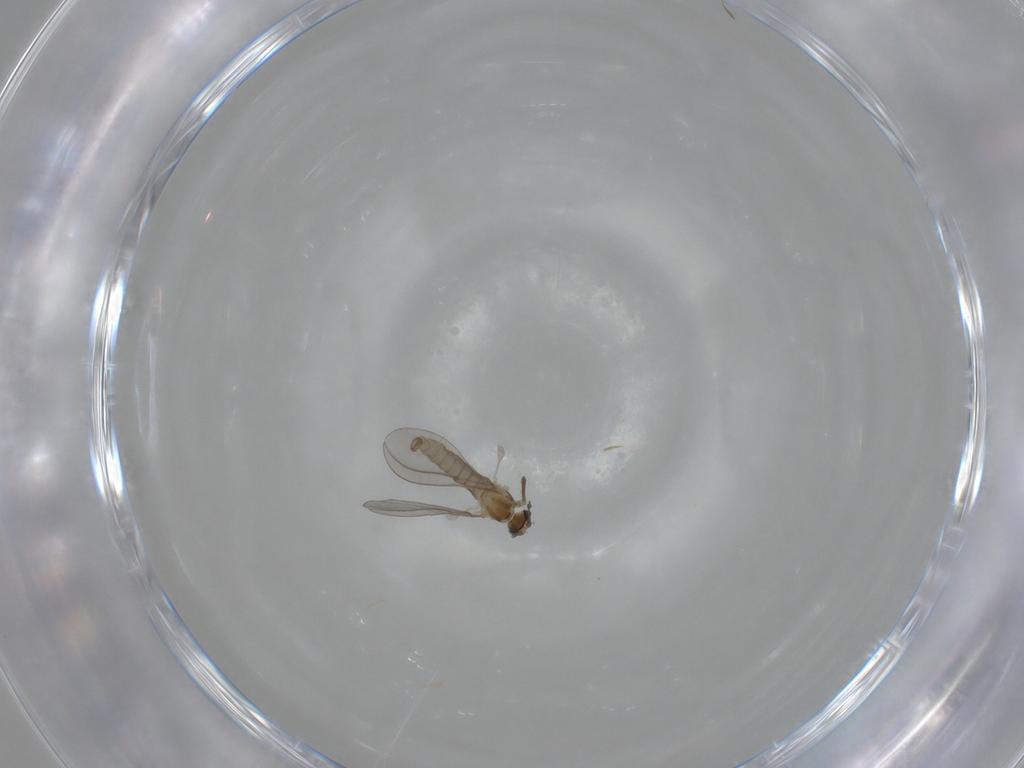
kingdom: Animalia
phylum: Arthropoda
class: Insecta
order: Diptera
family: Cecidomyiidae
